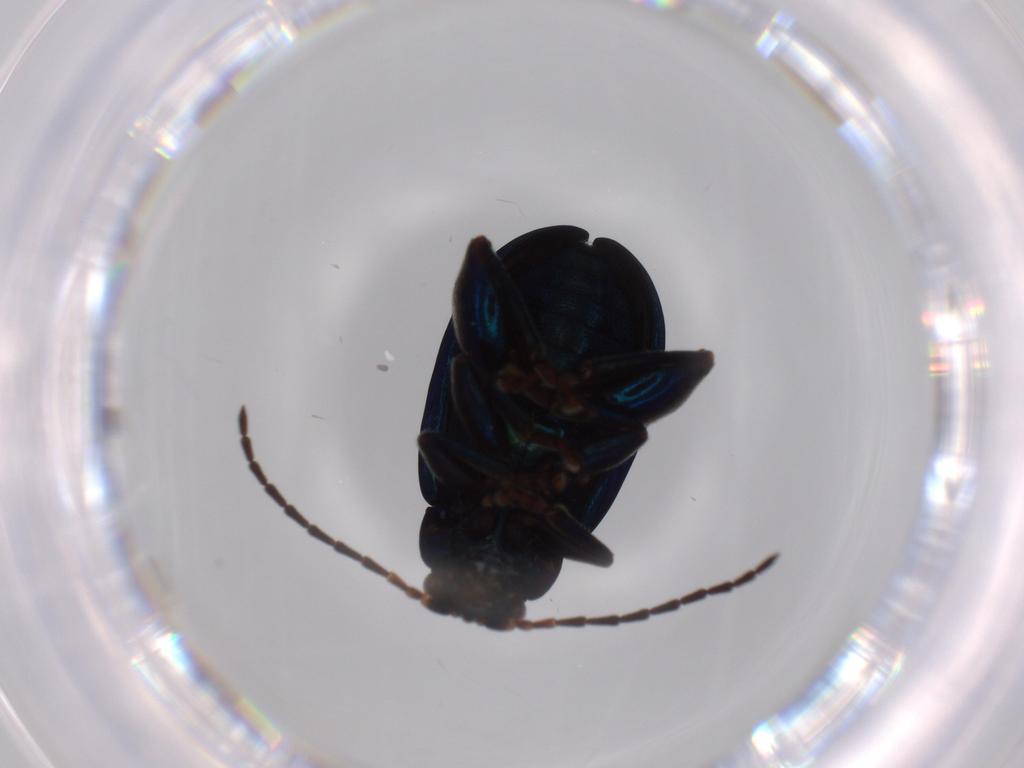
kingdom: Animalia
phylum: Arthropoda
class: Insecta
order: Coleoptera
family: Chrysomelidae
